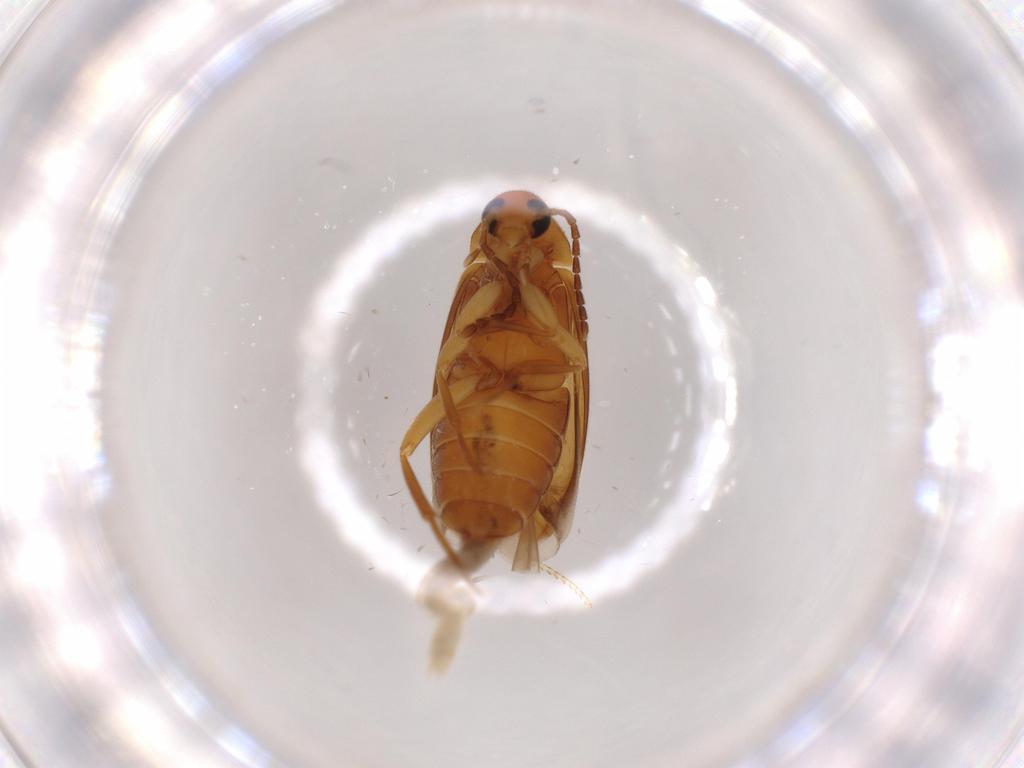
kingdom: Animalia
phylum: Arthropoda
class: Insecta
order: Coleoptera
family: Scraptiidae
